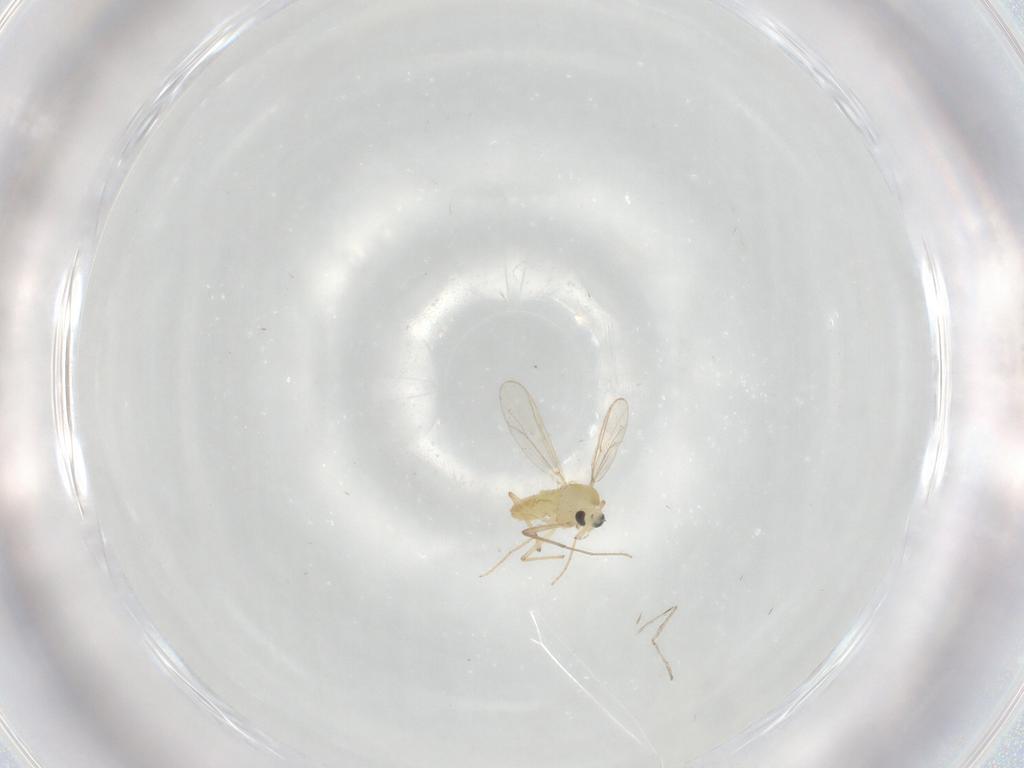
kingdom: Animalia
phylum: Arthropoda
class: Insecta
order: Diptera
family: Chironomidae
